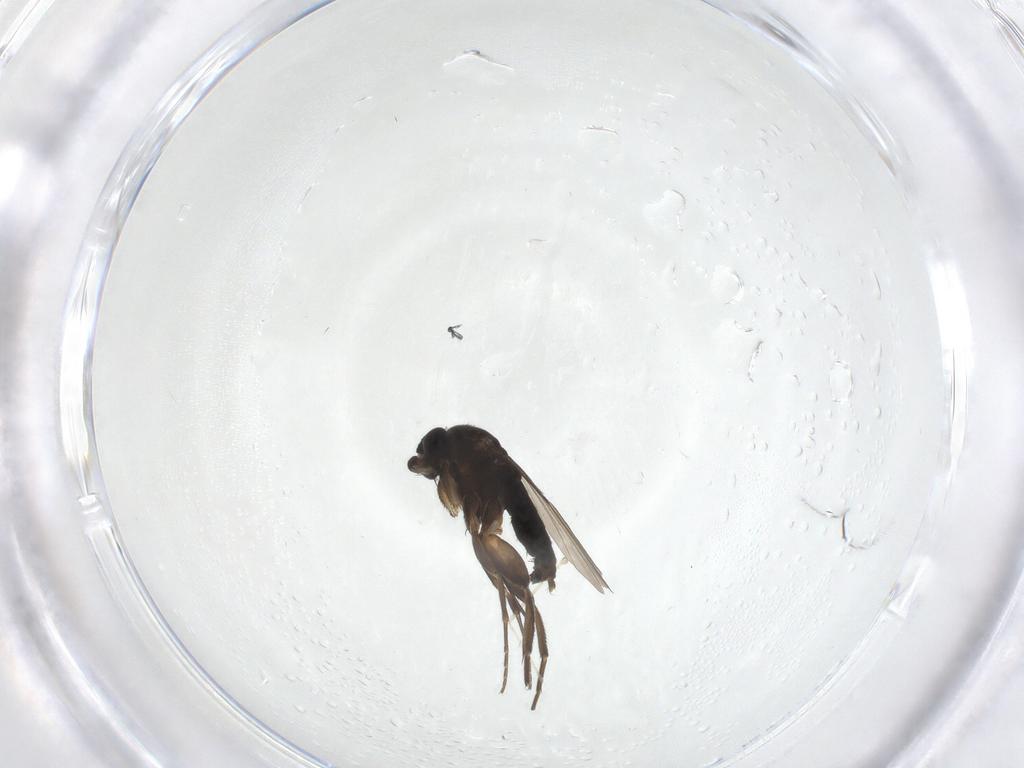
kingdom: Animalia
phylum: Arthropoda
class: Insecta
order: Diptera
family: Phoridae
